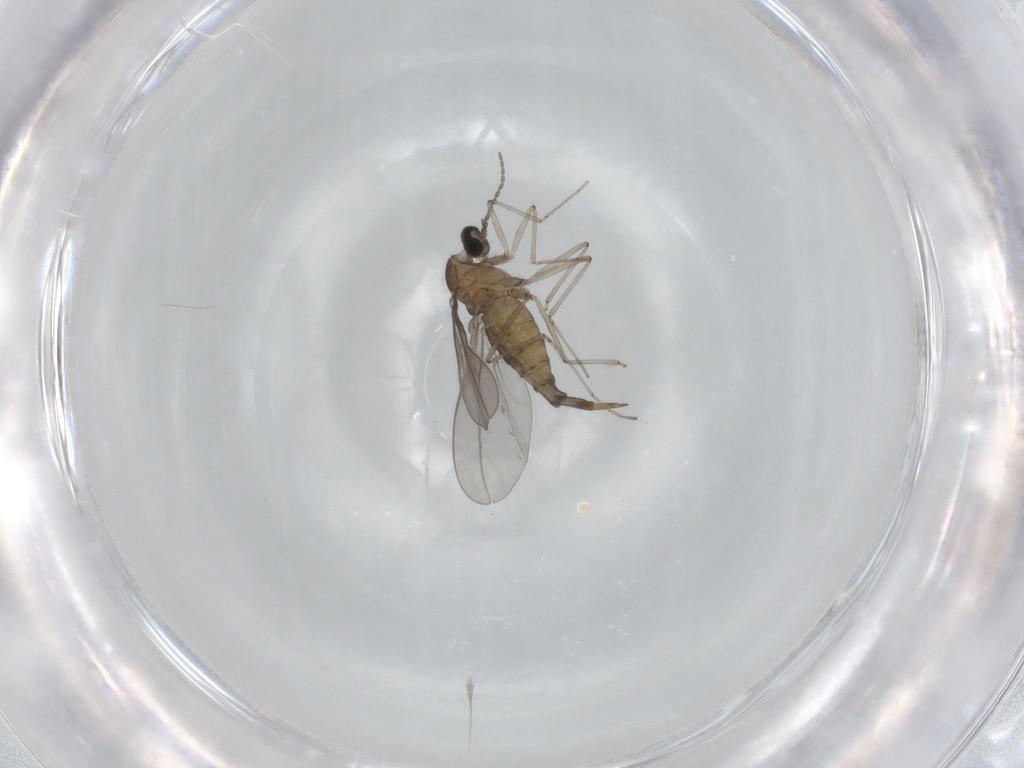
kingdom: Animalia
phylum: Arthropoda
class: Insecta
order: Diptera
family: Cecidomyiidae
